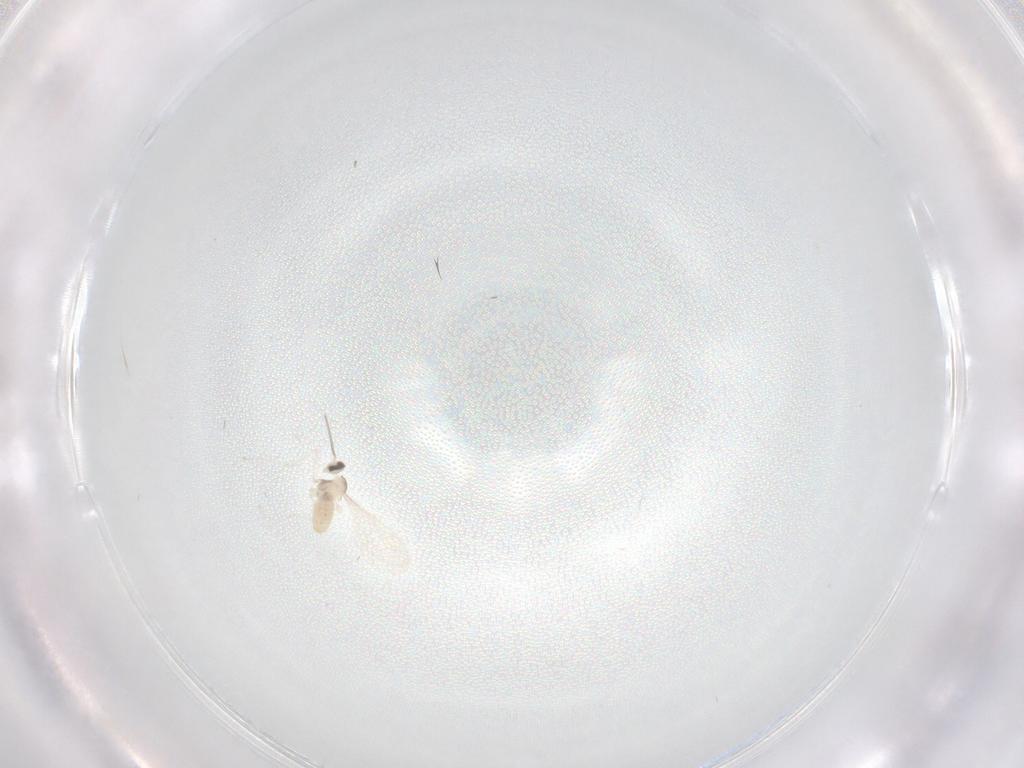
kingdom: Animalia
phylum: Arthropoda
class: Insecta
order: Diptera
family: Cecidomyiidae
